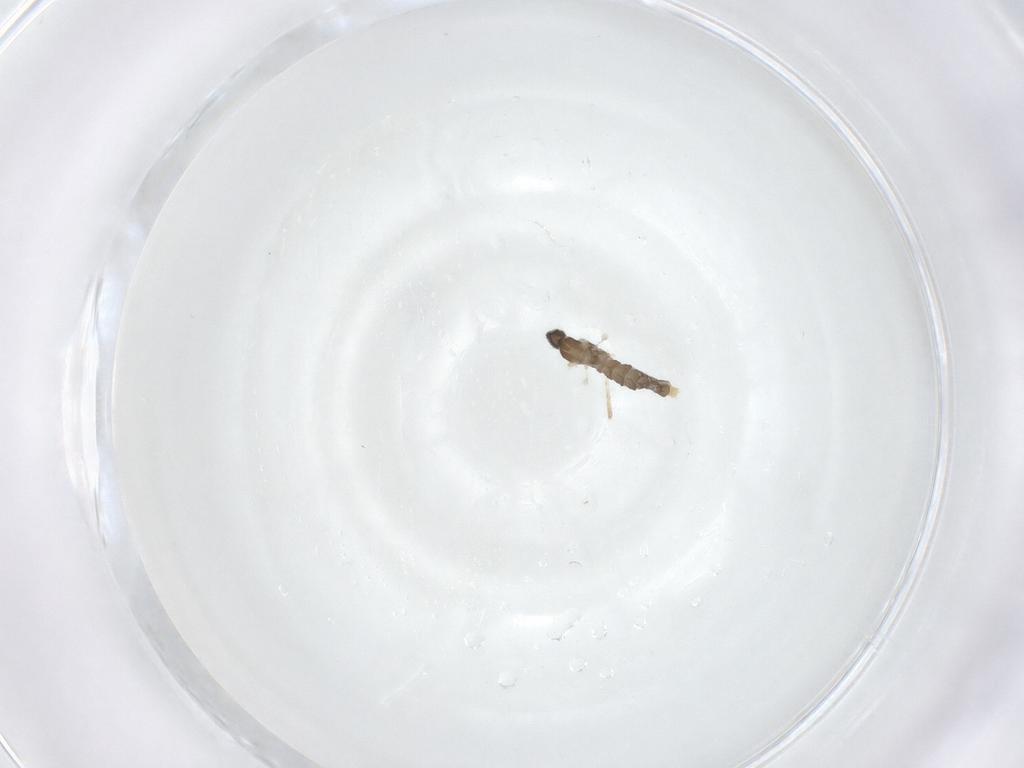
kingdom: Animalia
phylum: Arthropoda
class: Insecta
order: Diptera
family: Cecidomyiidae
